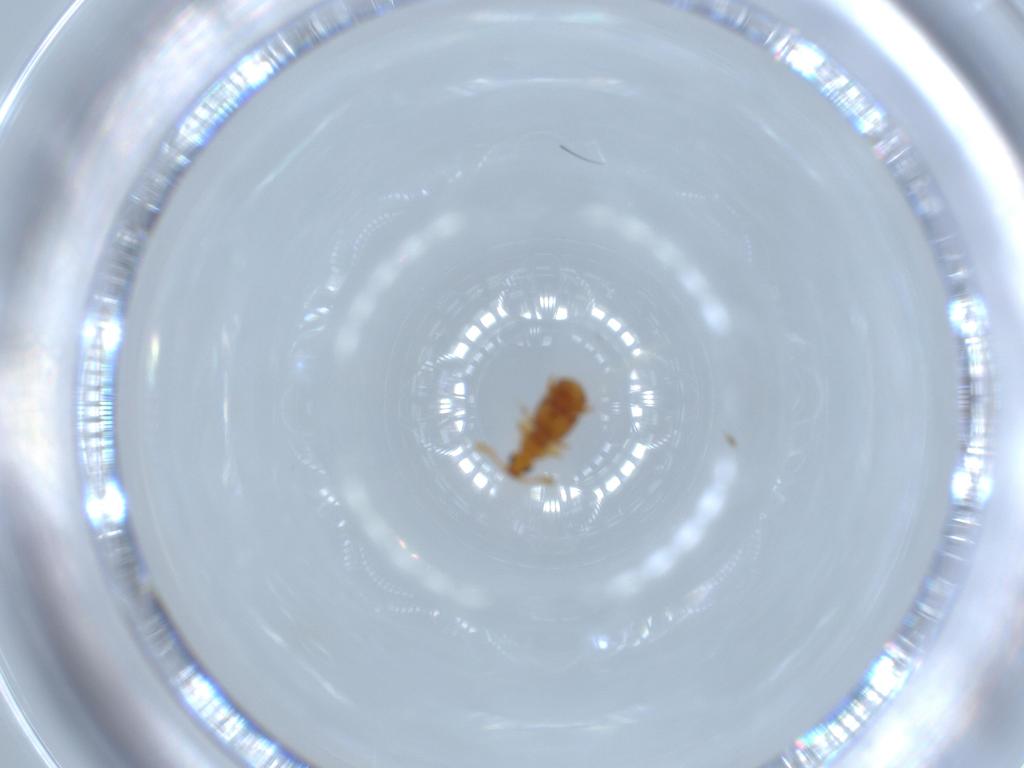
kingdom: Animalia
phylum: Arthropoda
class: Insecta
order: Coleoptera
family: Staphylinidae
